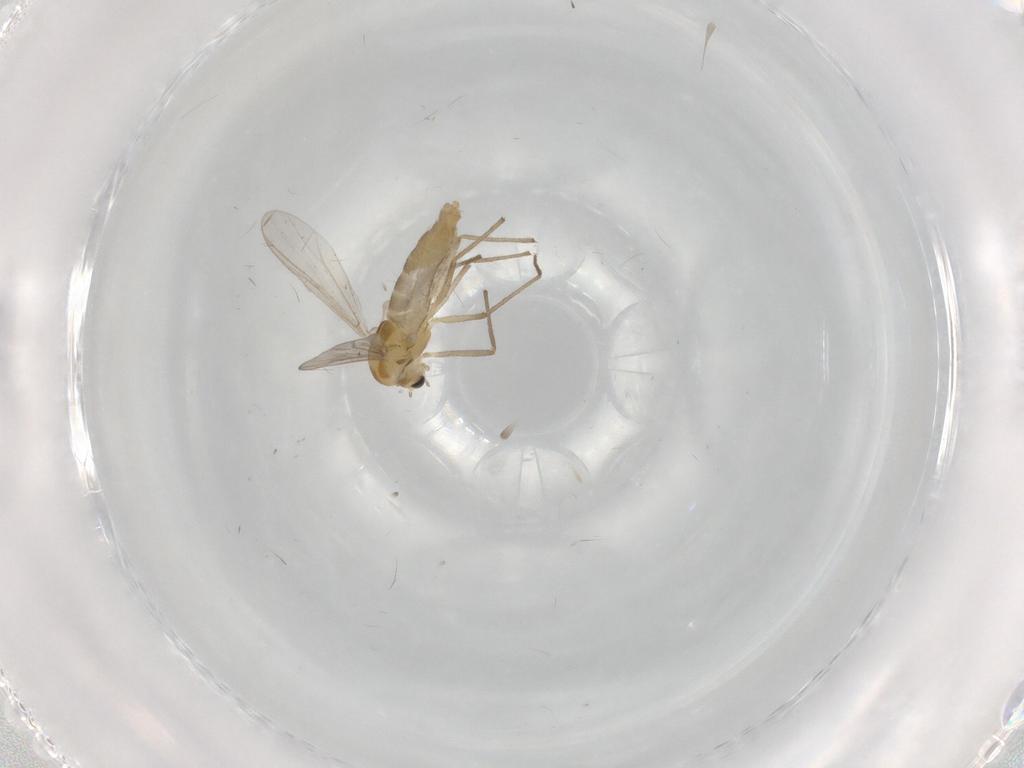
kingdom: Animalia
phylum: Arthropoda
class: Insecta
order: Diptera
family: Chironomidae
